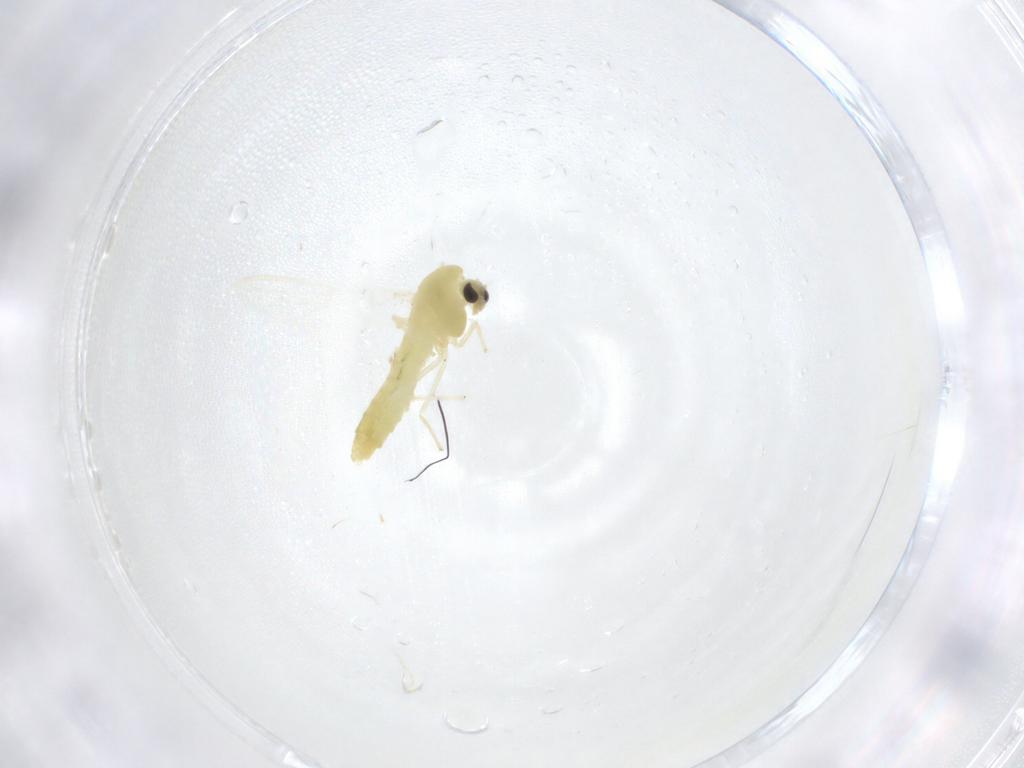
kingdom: Animalia
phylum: Arthropoda
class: Insecta
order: Diptera
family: Chironomidae
